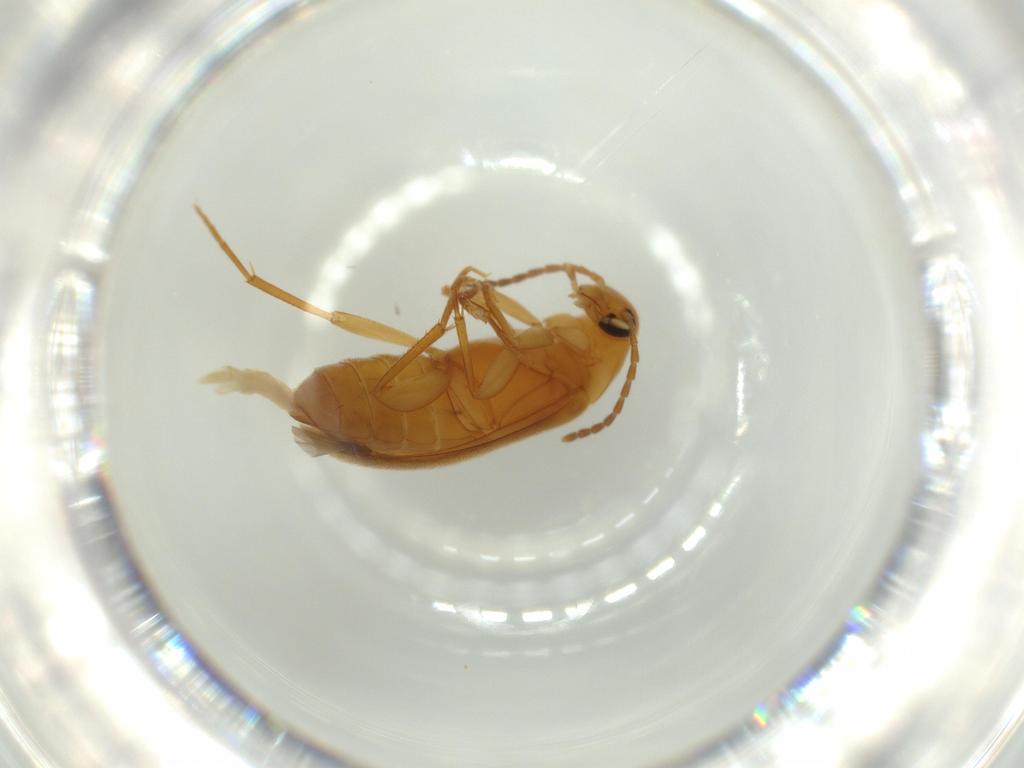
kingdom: Animalia
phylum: Arthropoda
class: Insecta
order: Coleoptera
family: Scraptiidae
